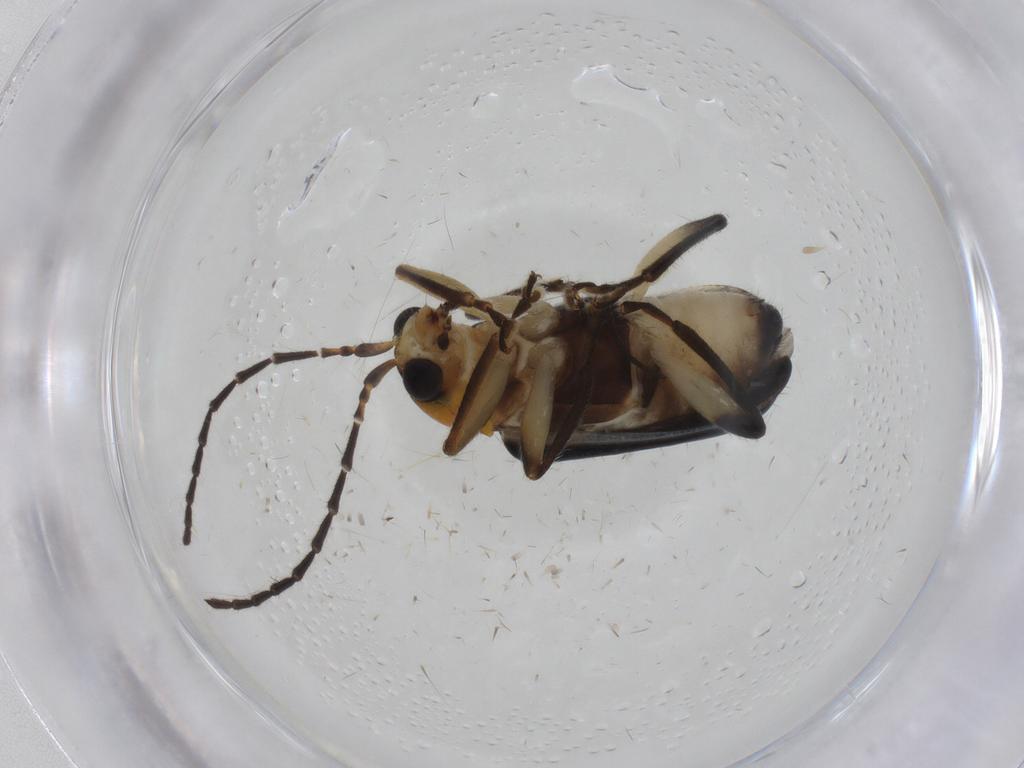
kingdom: Animalia
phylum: Arthropoda
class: Insecta
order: Coleoptera
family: Chrysomelidae
